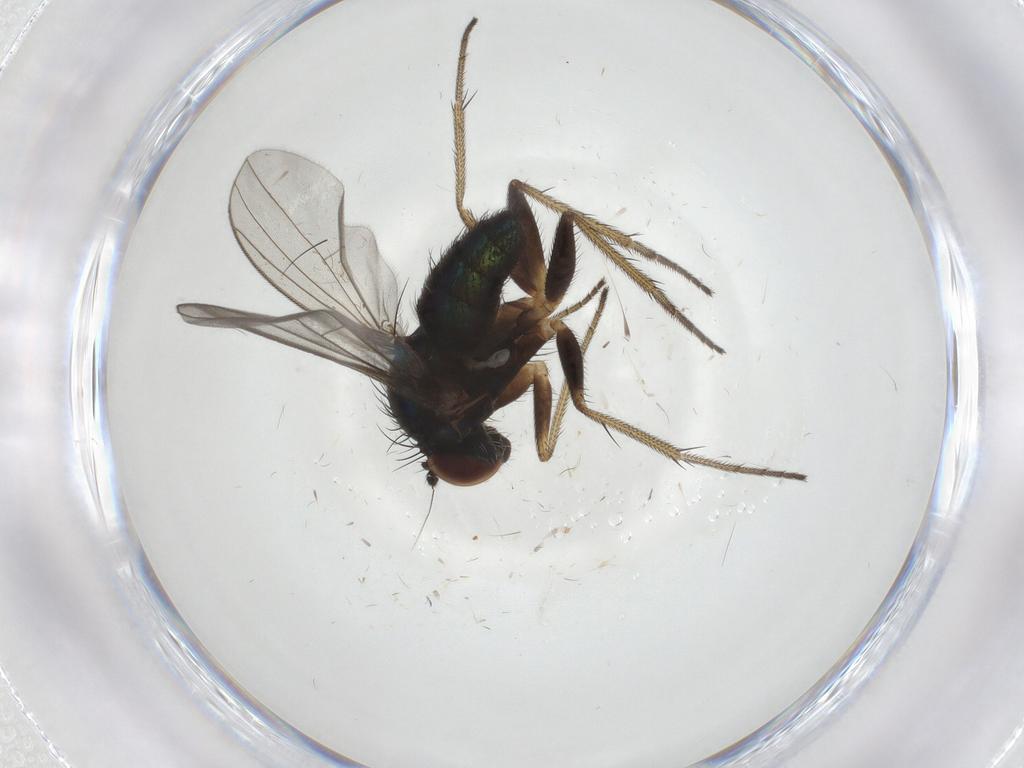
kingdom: Animalia
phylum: Arthropoda
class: Insecta
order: Diptera
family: Dolichopodidae
